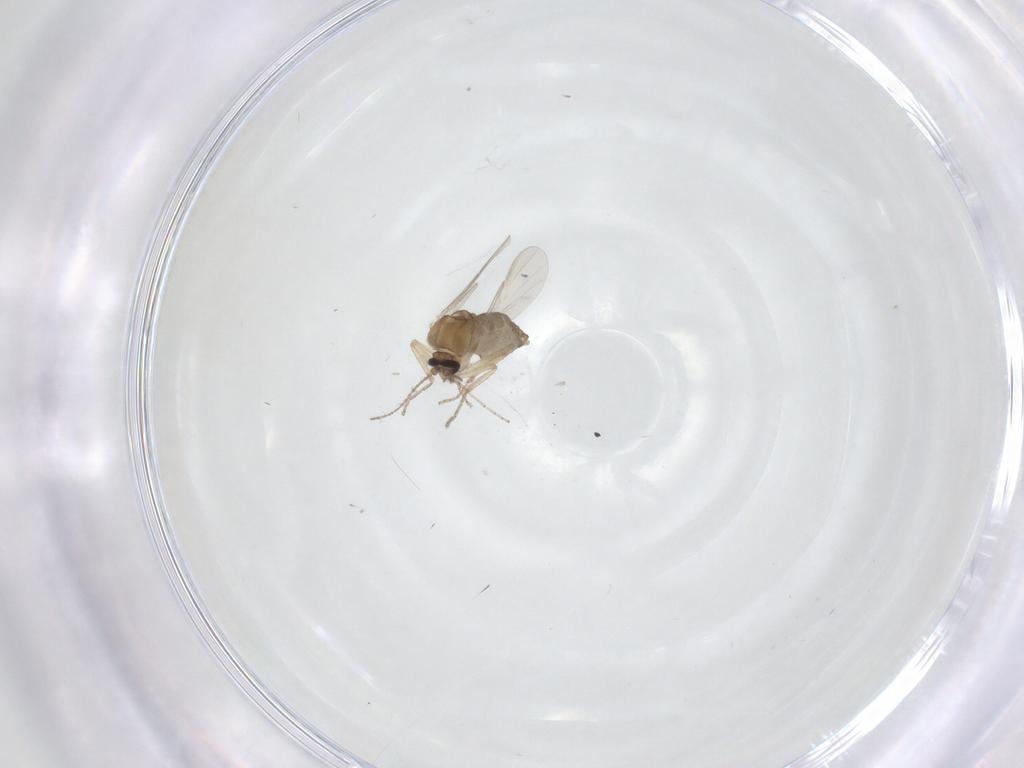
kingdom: Animalia
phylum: Arthropoda
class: Insecta
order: Diptera
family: Ceratopogonidae
